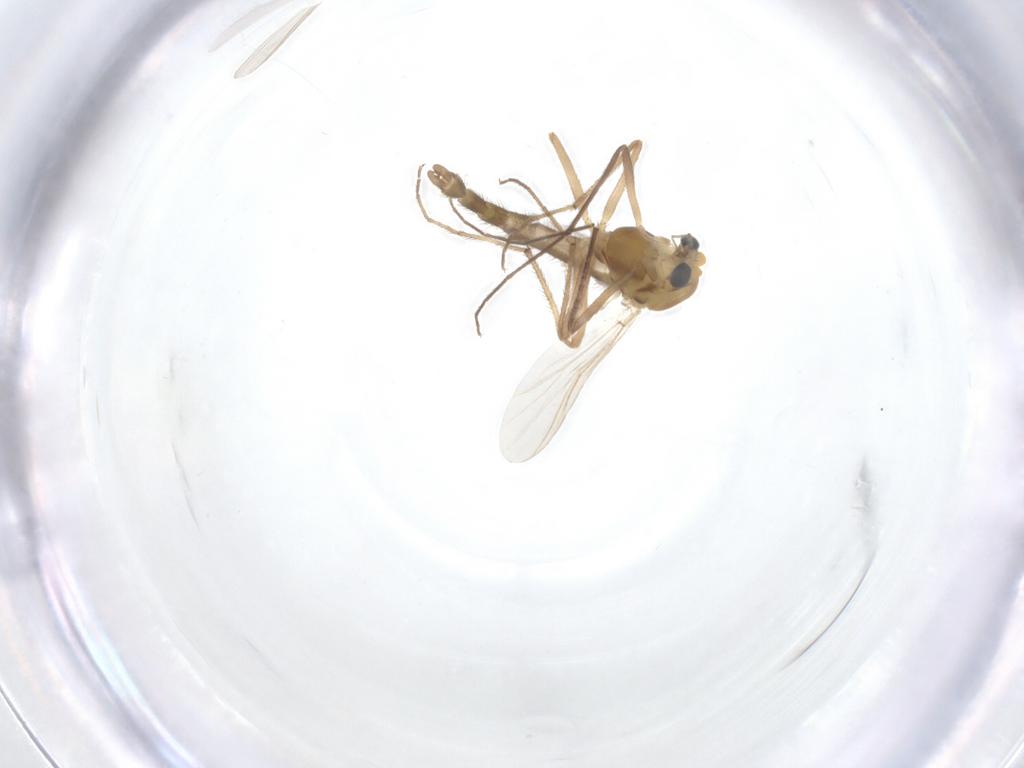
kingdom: Animalia
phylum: Arthropoda
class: Insecta
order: Diptera
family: Chironomidae
